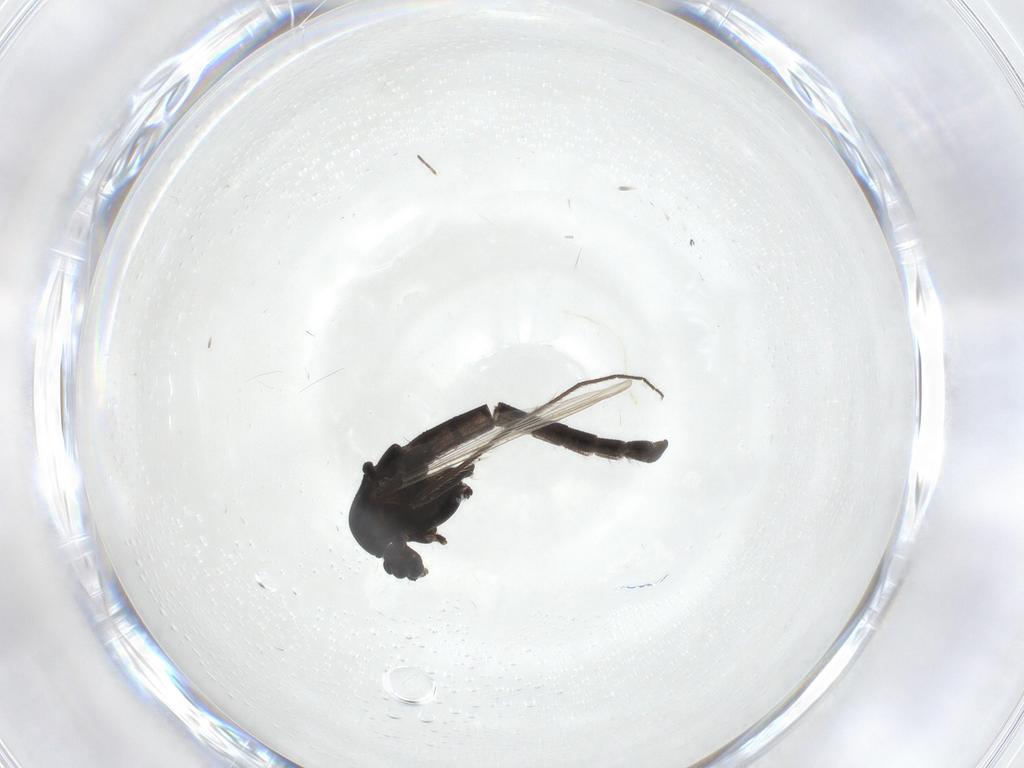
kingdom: Animalia
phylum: Arthropoda
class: Insecta
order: Diptera
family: Chironomidae
